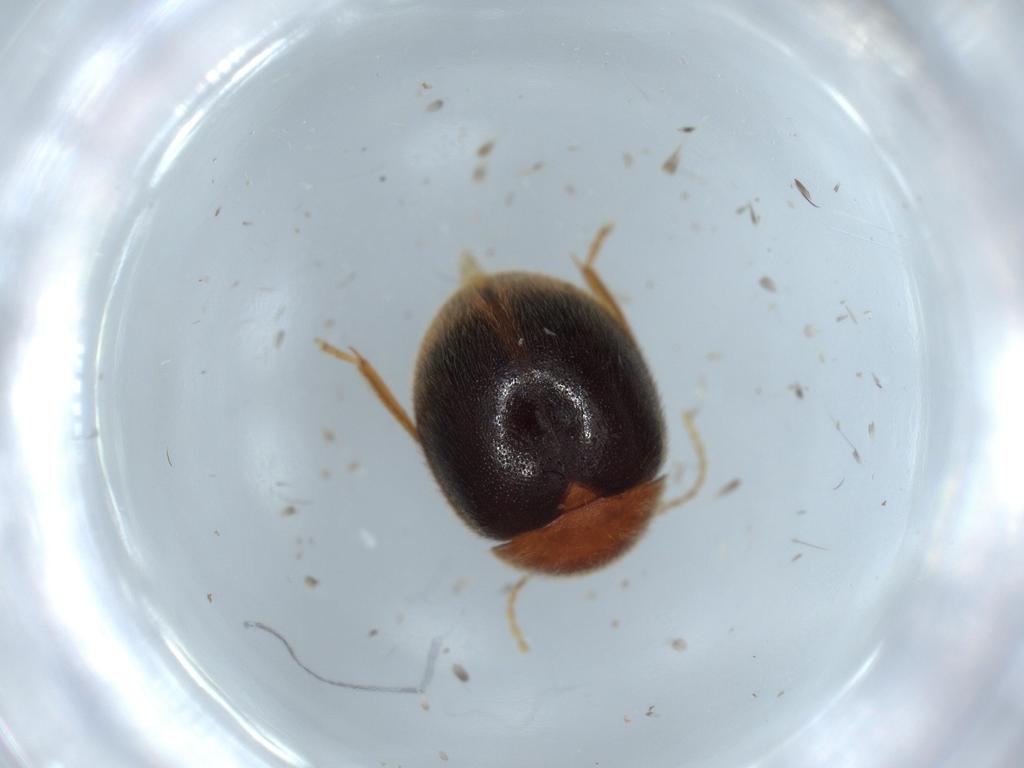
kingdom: Animalia
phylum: Arthropoda
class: Insecta
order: Coleoptera
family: Scirtidae
